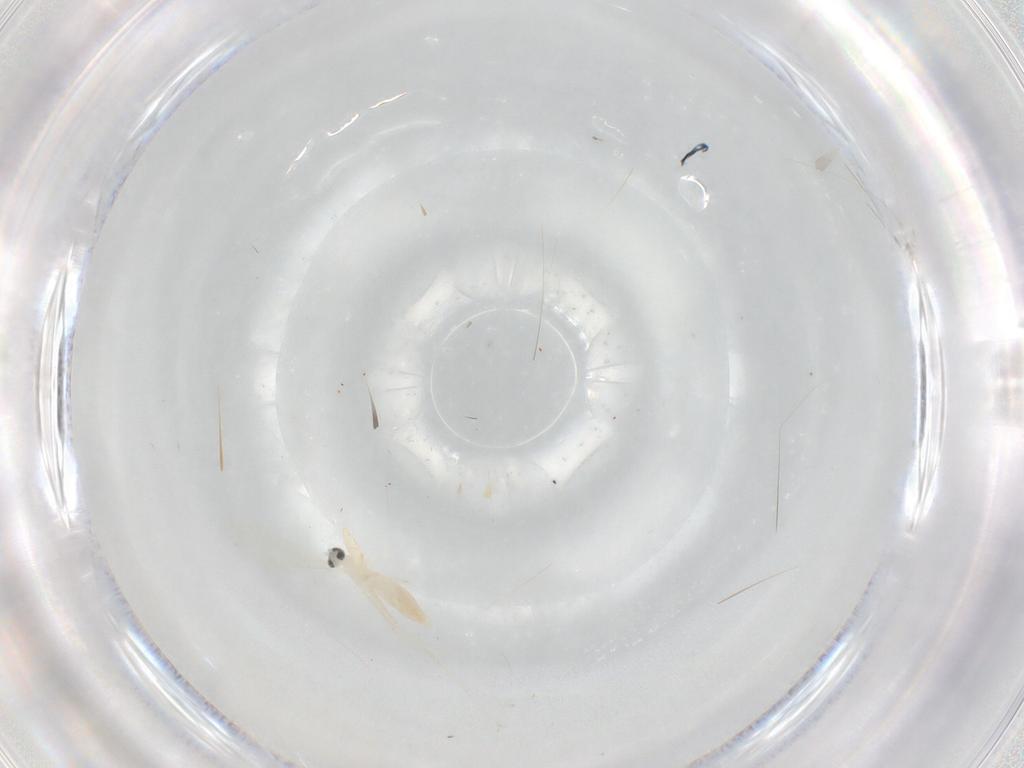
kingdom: Animalia
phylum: Arthropoda
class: Insecta
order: Diptera
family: Cecidomyiidae
